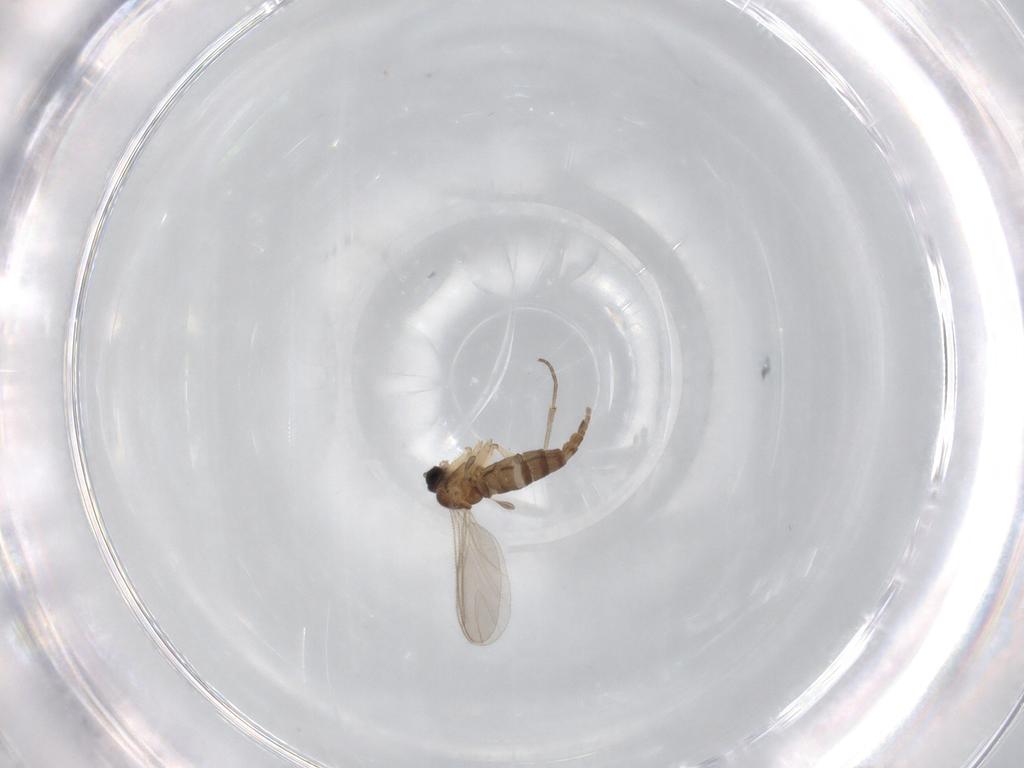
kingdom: Animalia
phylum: Arthropoda
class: Insecta
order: Diptera
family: Sciaridae
